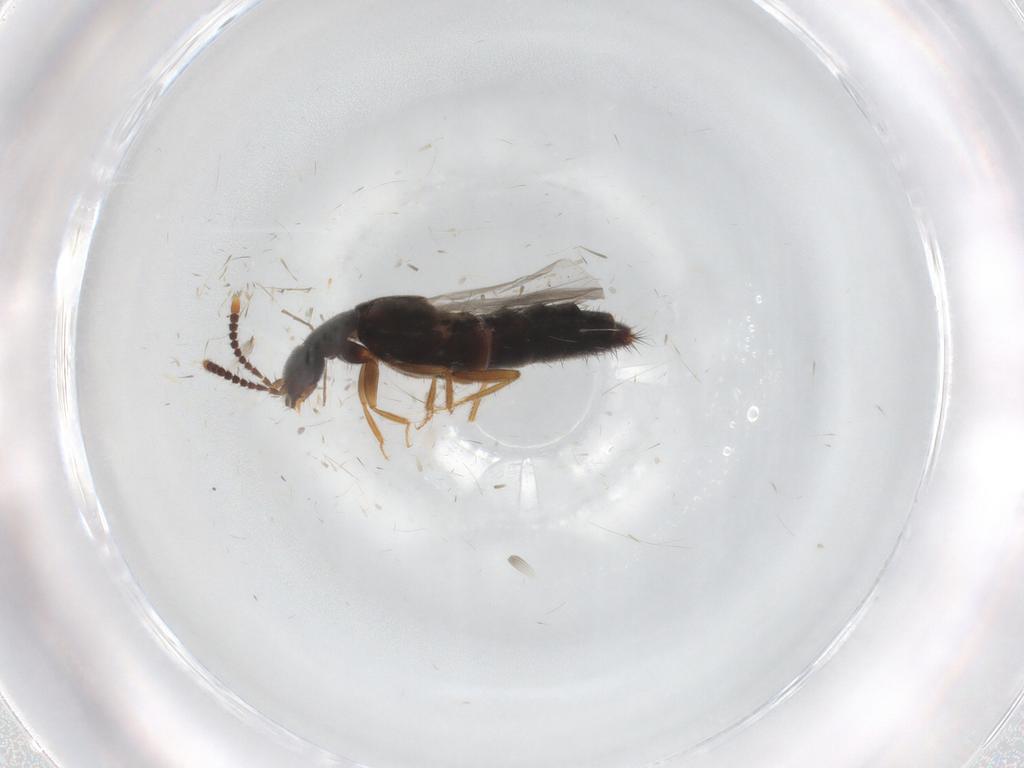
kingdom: Animalia
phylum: Arthropoda
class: Insecta
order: Coleoptera
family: Staphylinidae
